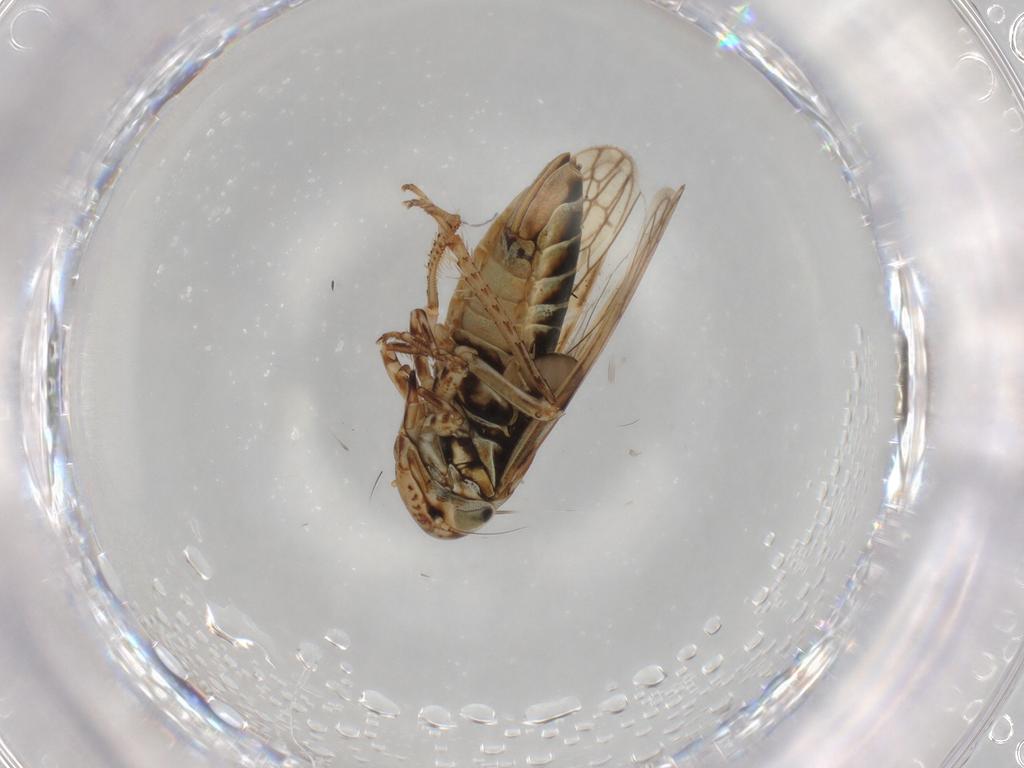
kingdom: Animalia
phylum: Arthropoda
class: Insecta
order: Hemiptera
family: Cicadellidae
